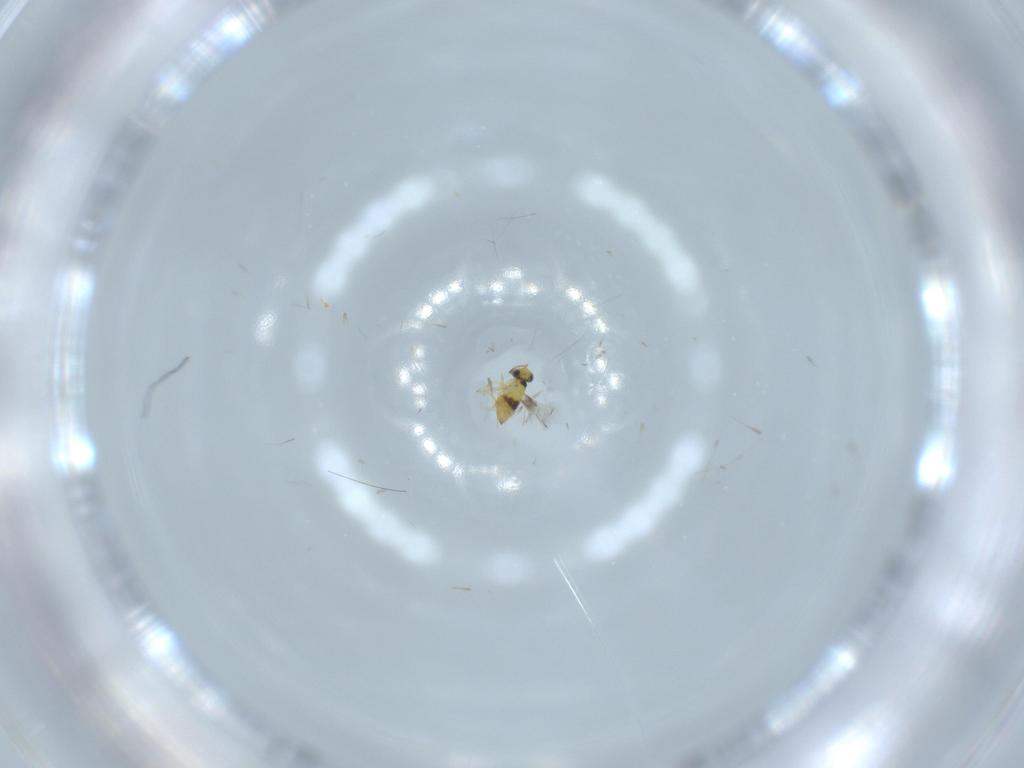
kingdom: Animalia
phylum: Arthropoda
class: Insecta
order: Hymenoptera
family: Signiphoridae
